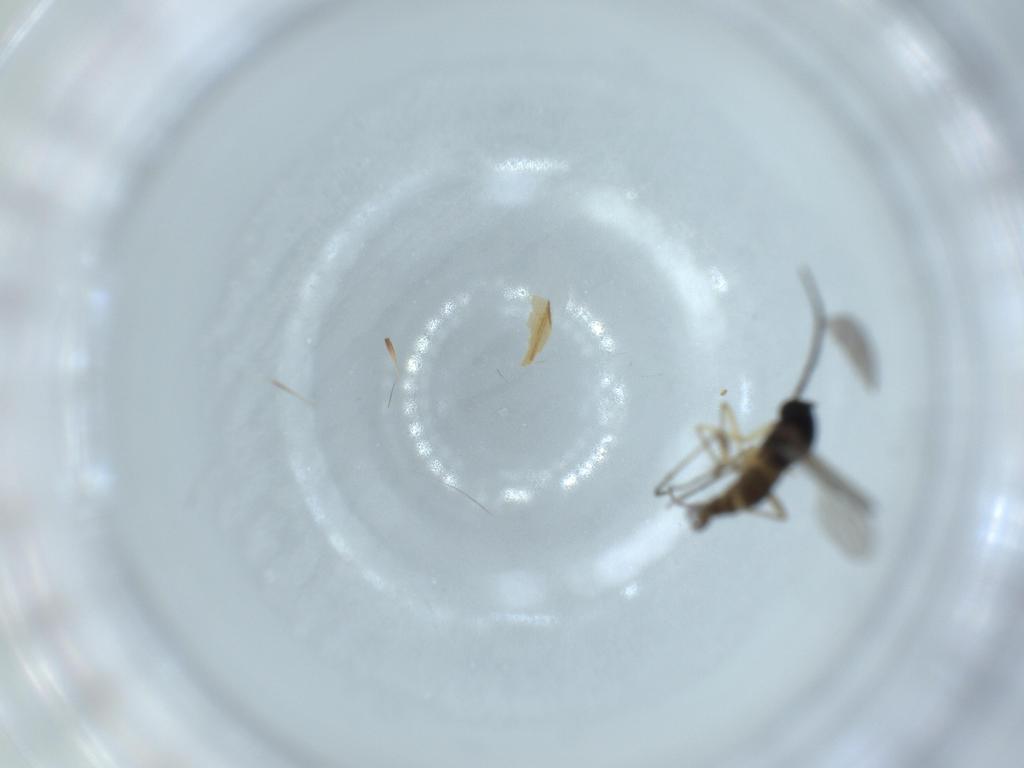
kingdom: Animalia
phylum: Arthropoda
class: Insecta
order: Diptera
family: Sciaridae
